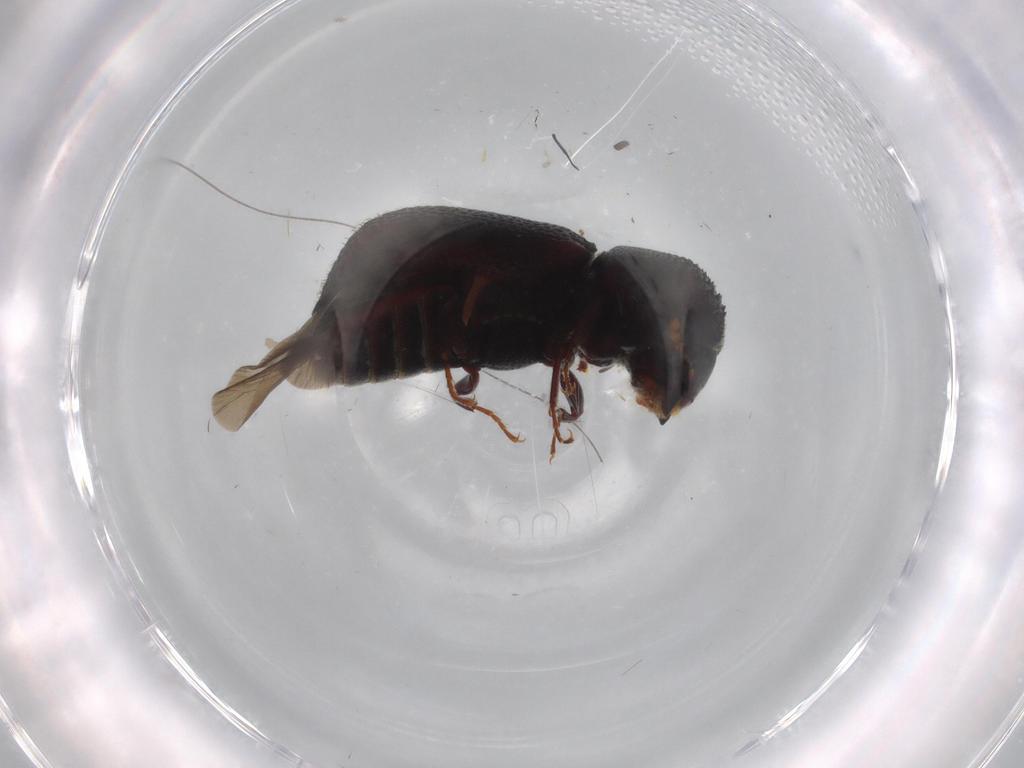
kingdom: Animalia
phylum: Arthropoda
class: Insecta
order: Coleoptera
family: Bostrichidae
